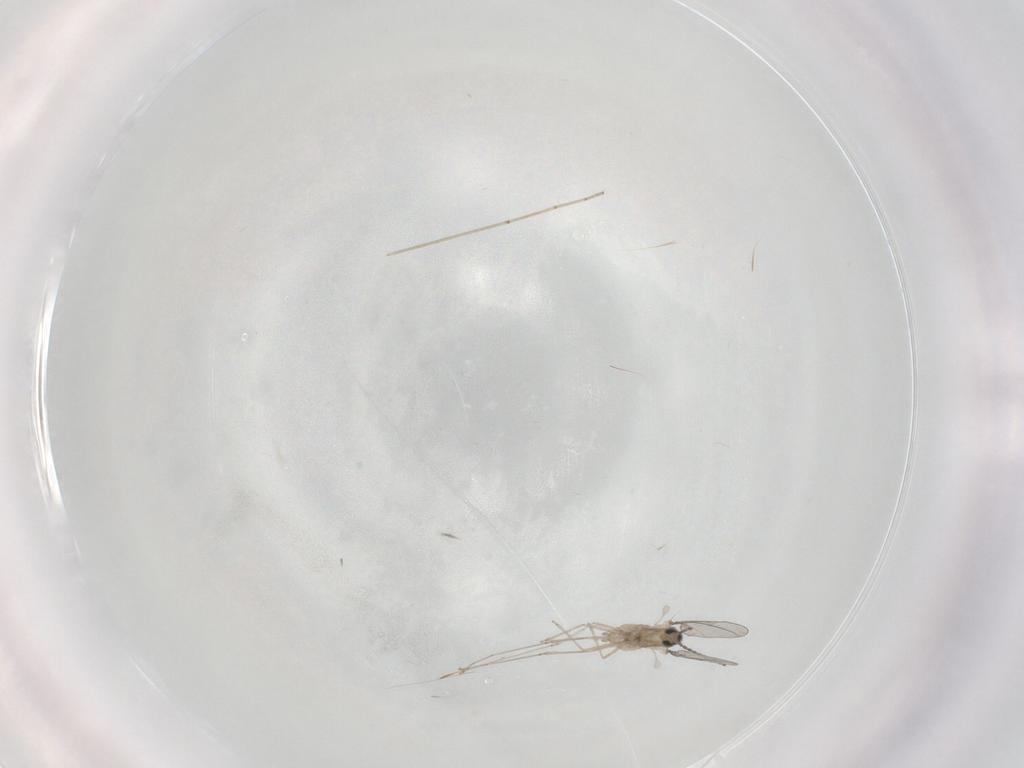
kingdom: Animalia
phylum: Arthropoda
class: Insecta
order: Diptera
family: Cecidomyiidae
